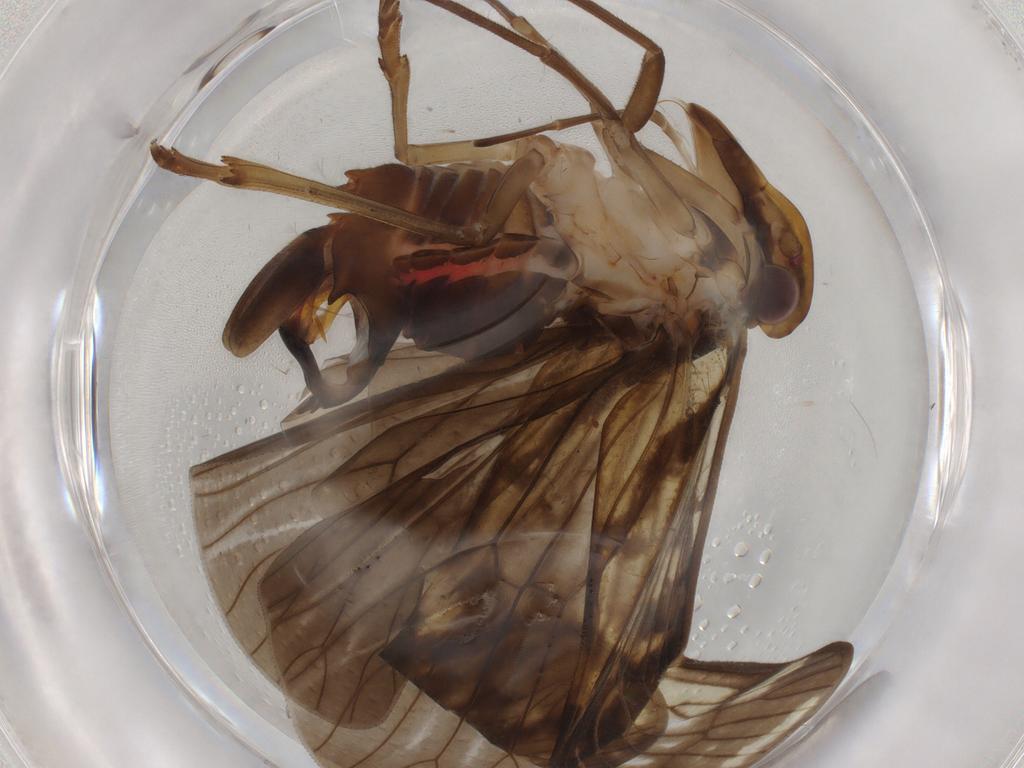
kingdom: Animalia
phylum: Arthropoda
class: Insecta
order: Hemiptera
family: Cixiidae
